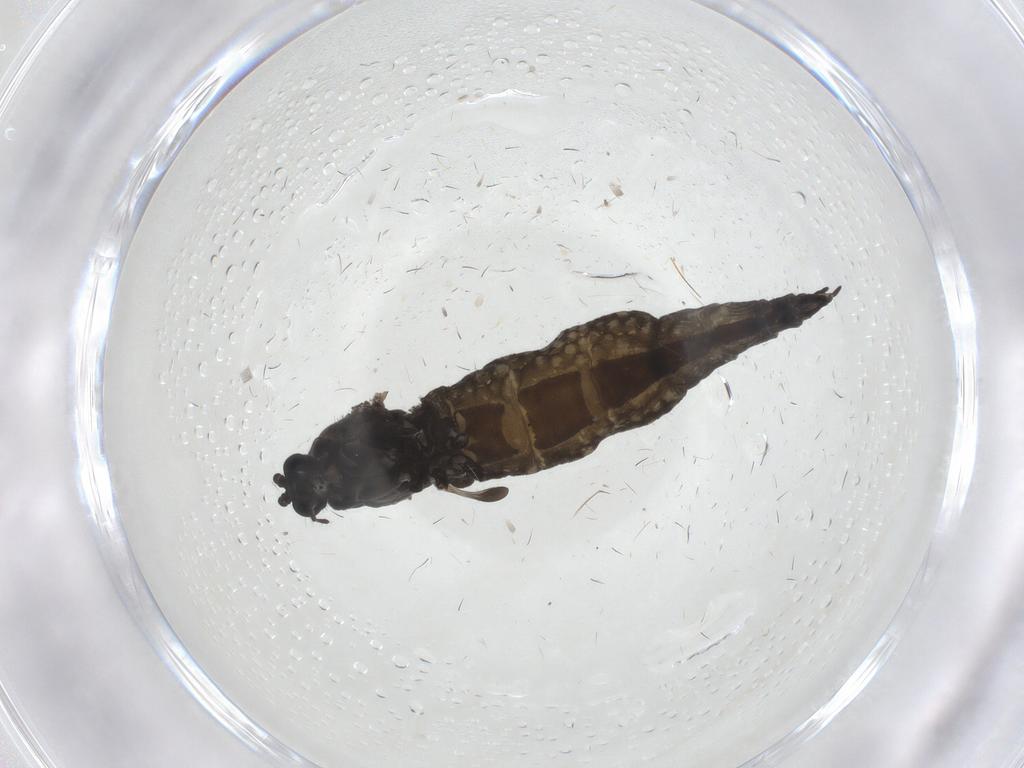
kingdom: Animalia
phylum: Arthropoda
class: Insecta
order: Diptera
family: Sciaridae
